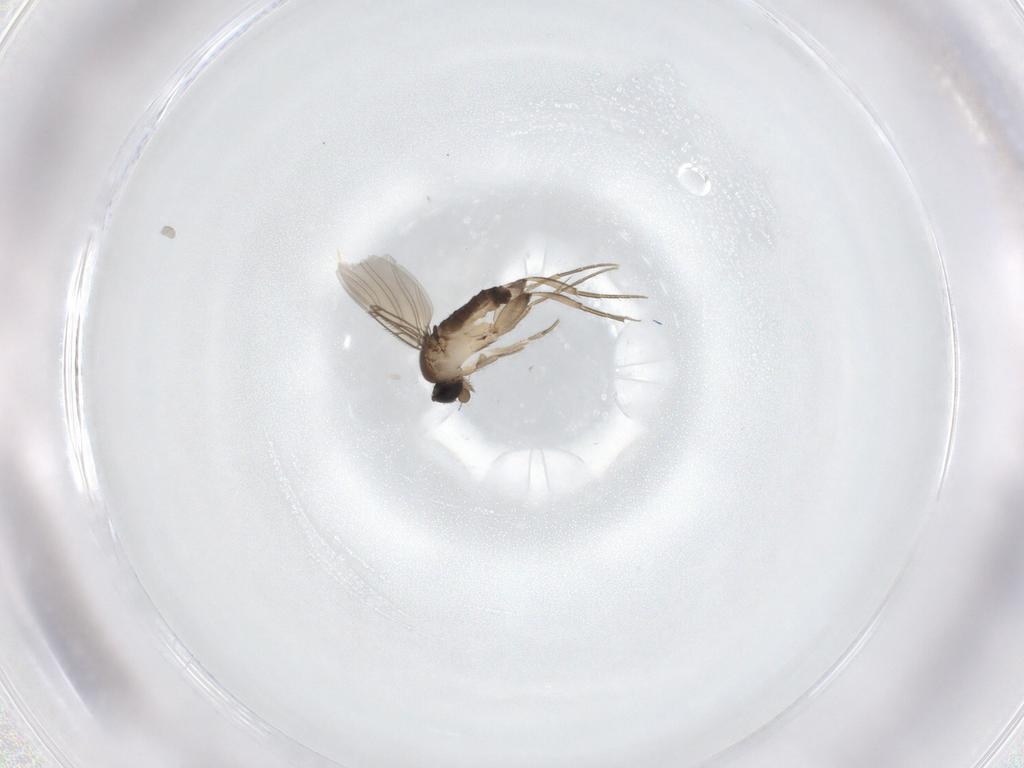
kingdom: Animalia
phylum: Arthropoda
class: Insecta
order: Diptera
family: Phoridae
